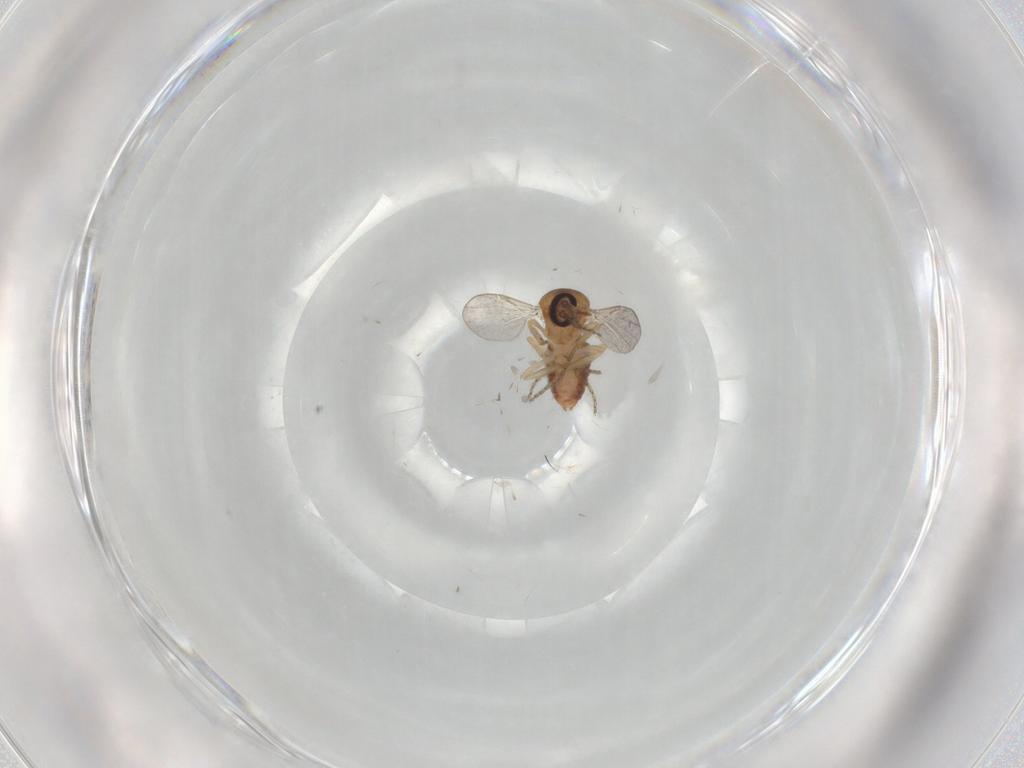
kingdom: Animalia
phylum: Arthropoda
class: Insecta
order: Diptera
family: Ceratopogonidae
